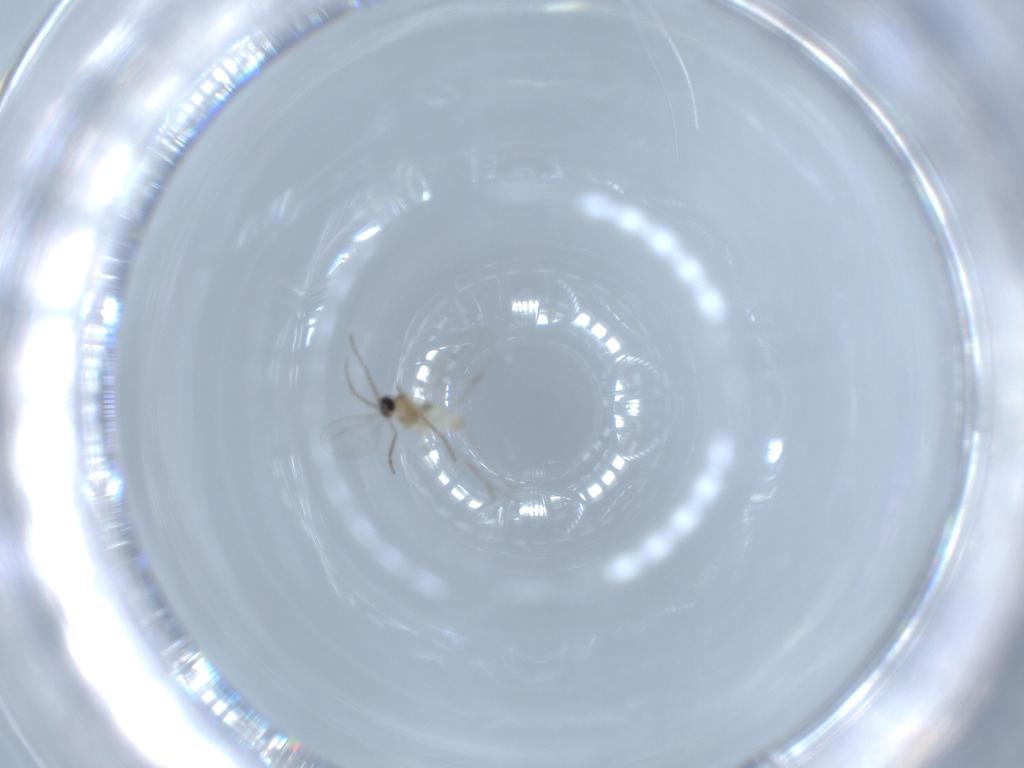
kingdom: Animalia
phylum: Arthropoda
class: Insecta
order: Diptera
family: Cecidomyiidae
